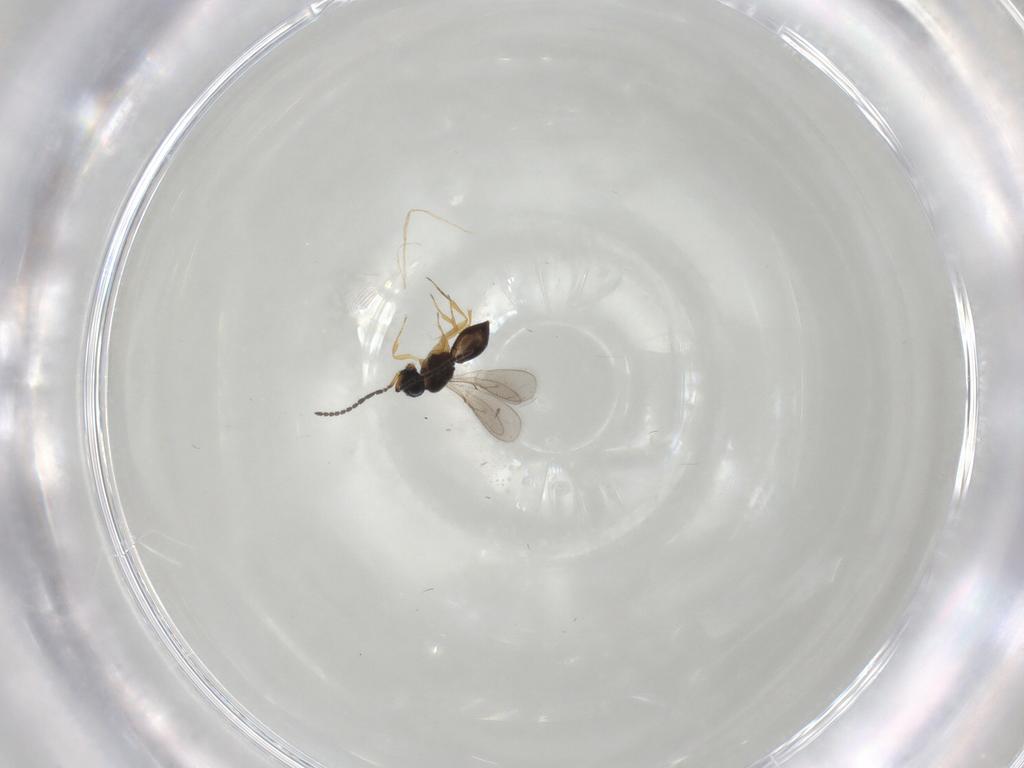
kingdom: Animalia
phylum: Arthropoda
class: Insecta
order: Hymenoptera
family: Scelionidae
